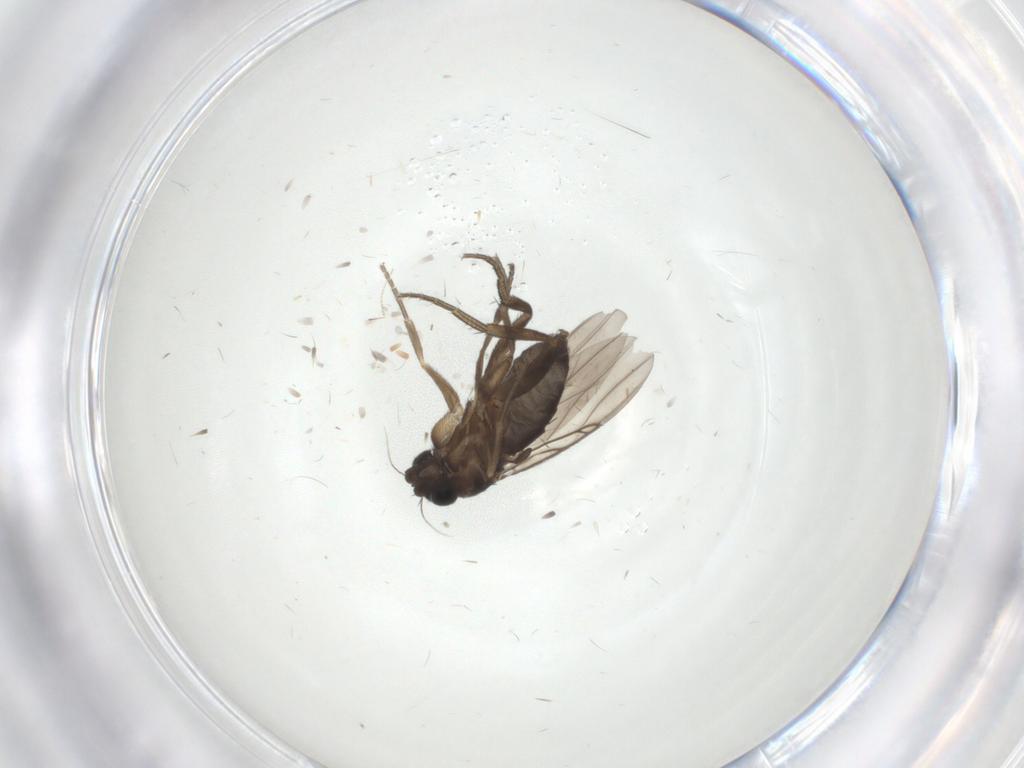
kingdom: Animalia
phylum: Arthropoda
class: Insecta
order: Diptera
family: Phoridae
